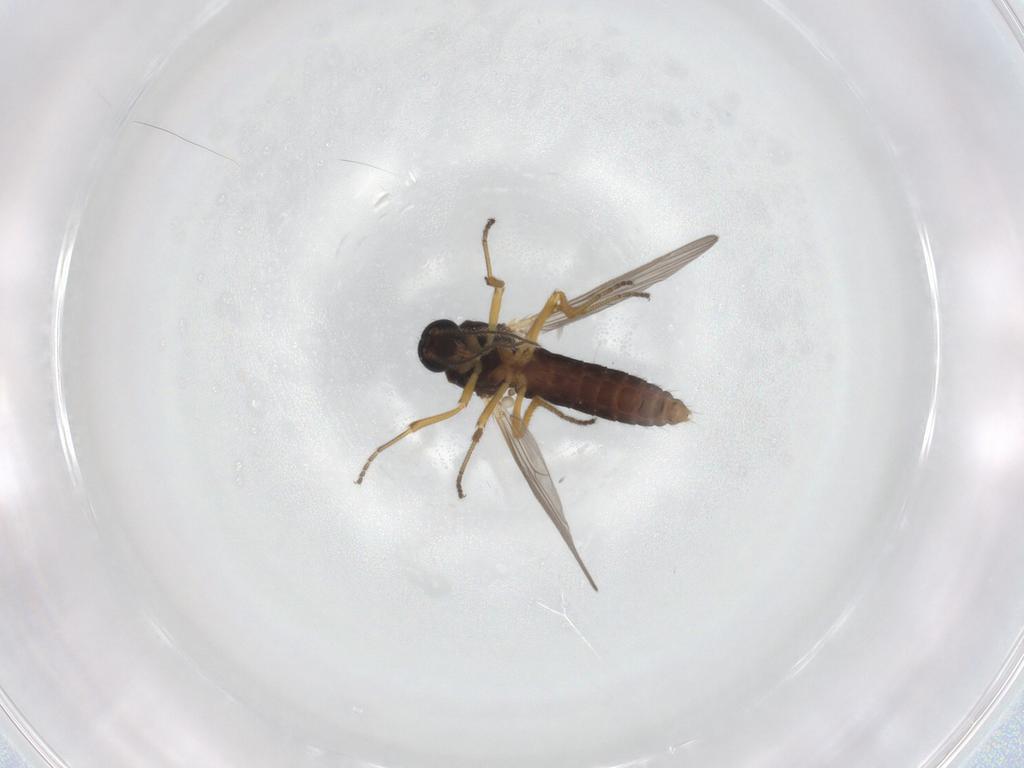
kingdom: Animalia
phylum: Arthropoda
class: Insecta
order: Diptera
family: Ceratopogonidae
